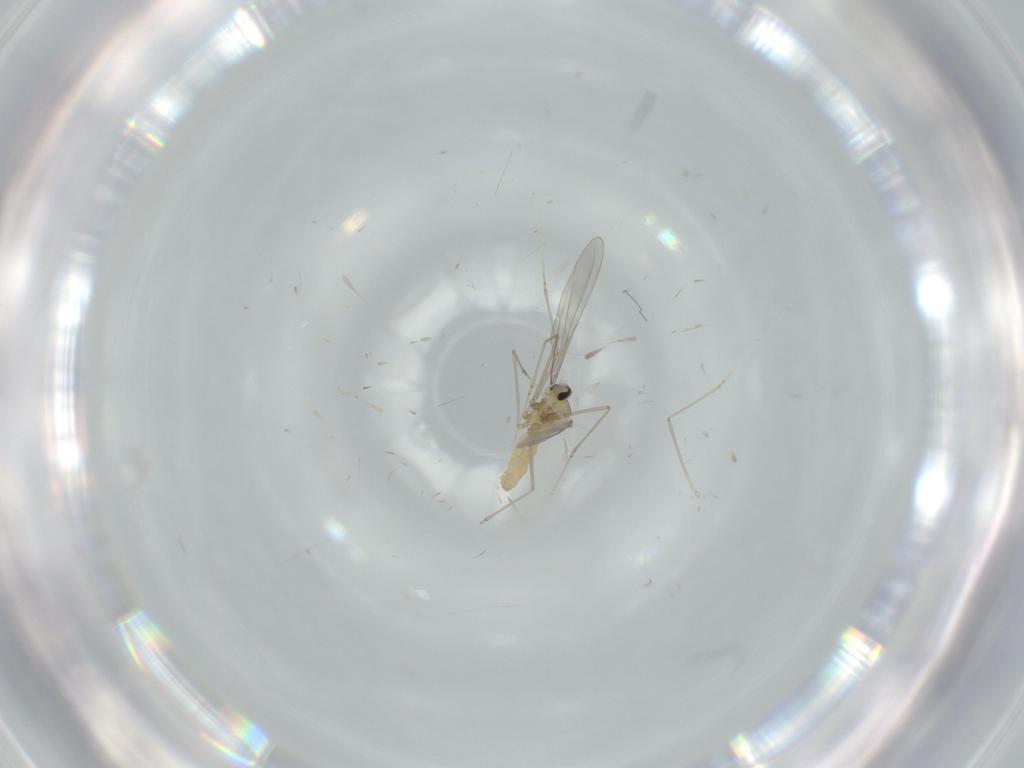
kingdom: Animalia
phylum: Arthropoda
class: Insecta
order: Diptera
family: Cecidomyiidae
